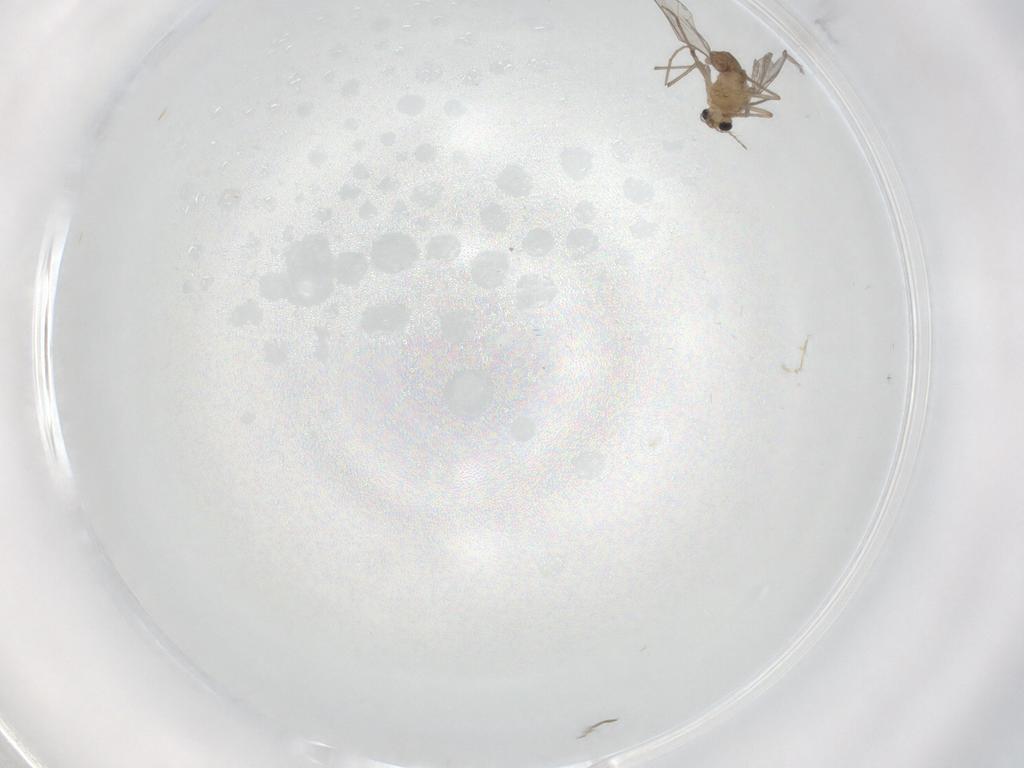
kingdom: Animalia
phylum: Arthropoda
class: Insecta
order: Diptera
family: Chironomidae
